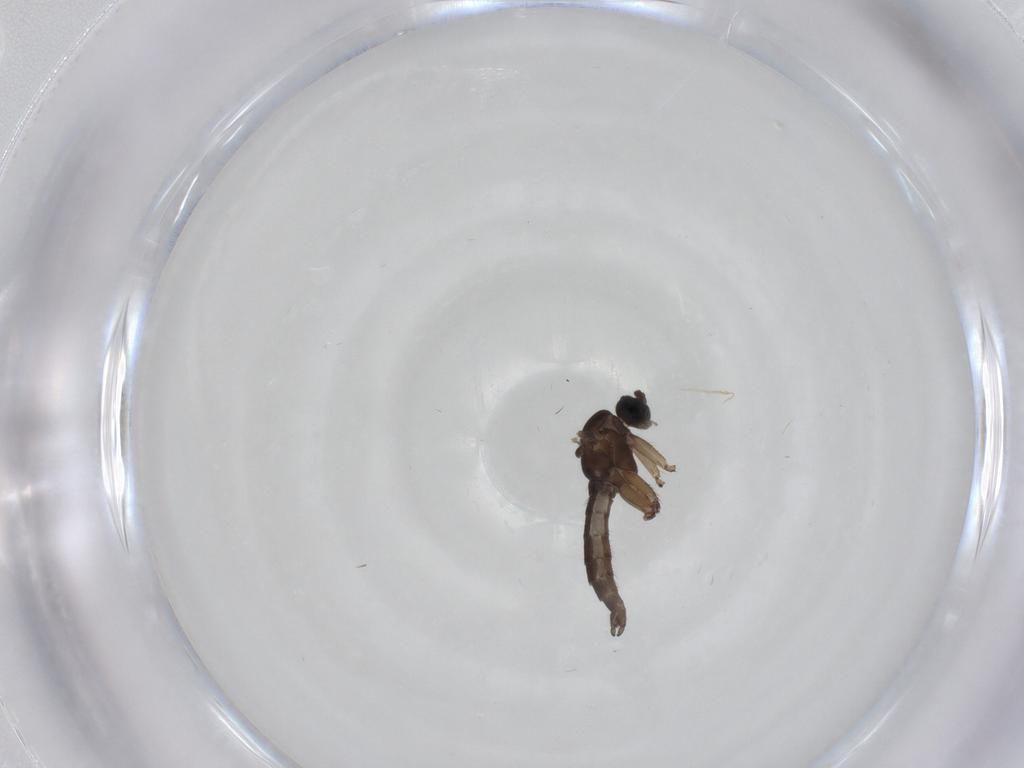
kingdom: Animalia
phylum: Arthropoda
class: Insecta
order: Diptera
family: Sciaridae
